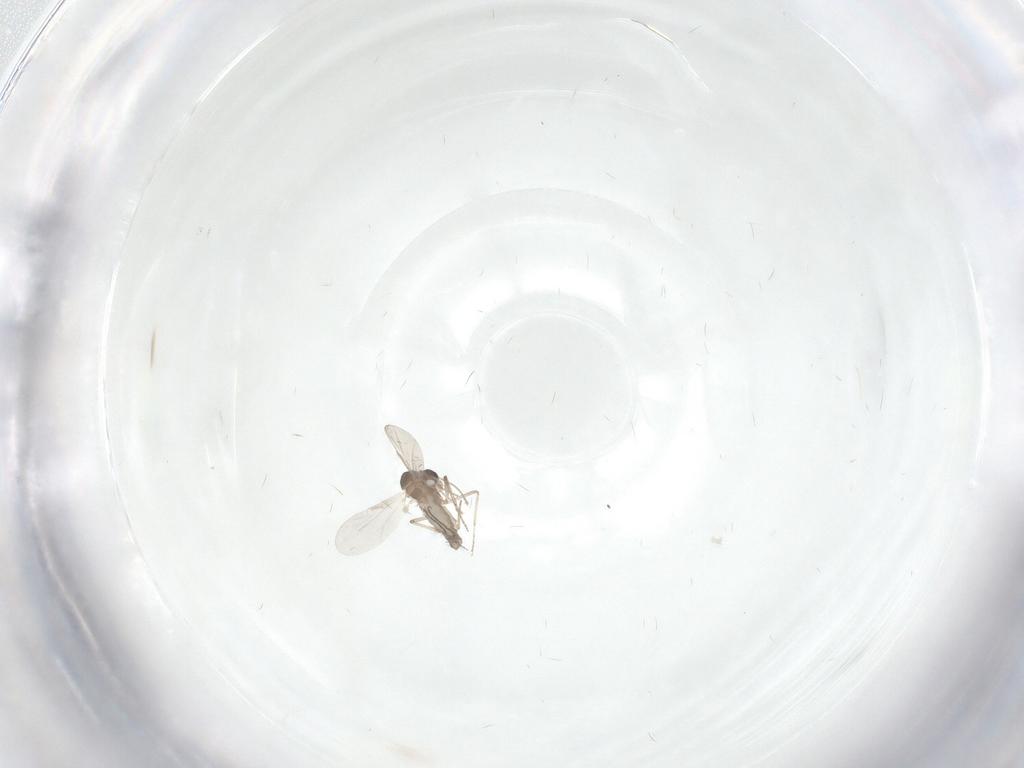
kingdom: Animalia
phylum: Arthropoda
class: Insecta
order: Diptera
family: Ceratopogonidae
